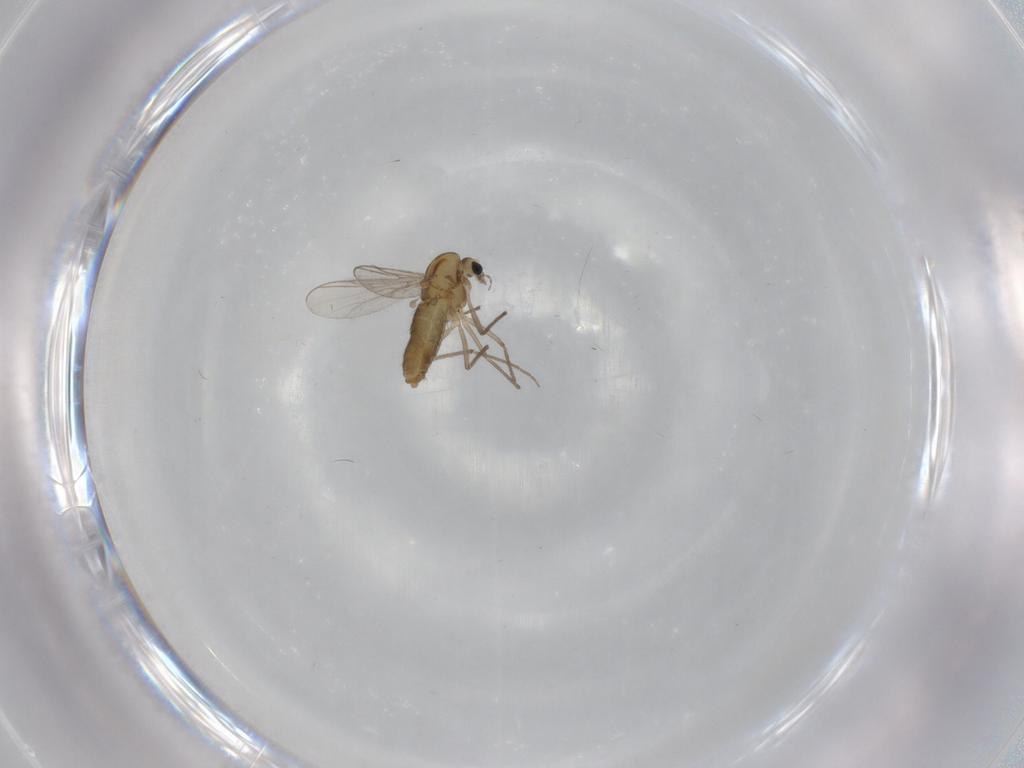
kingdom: Animalia
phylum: Arthropoda
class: Insecta
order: Diptera
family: Chironomidae
